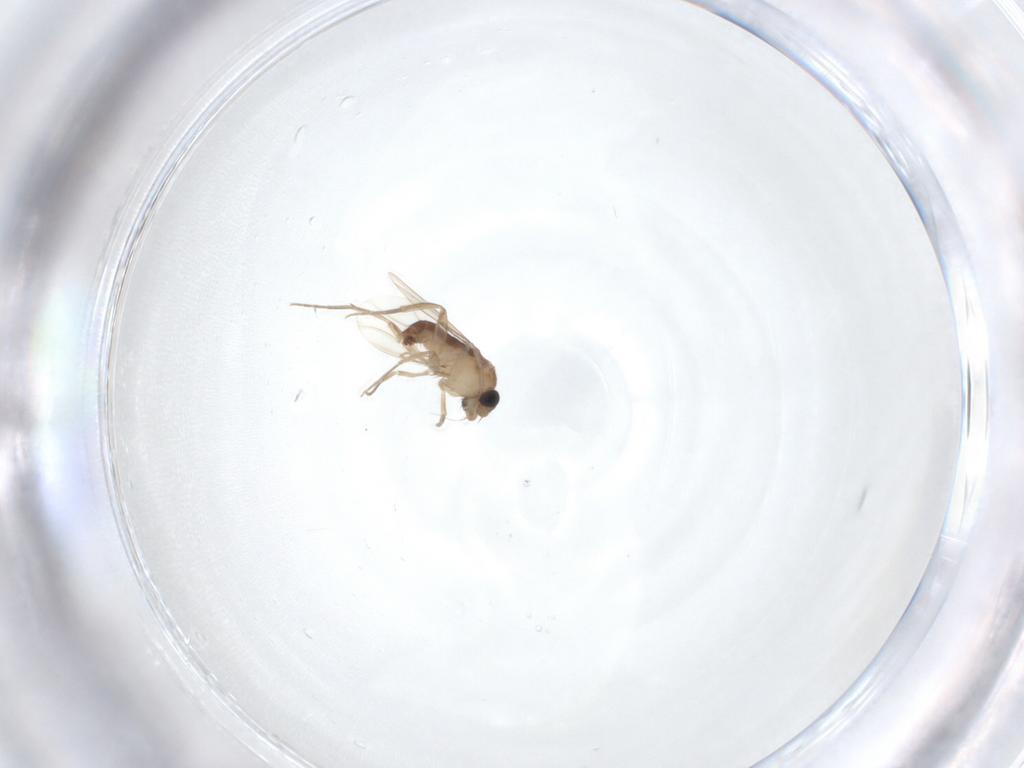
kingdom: Animalia
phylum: Arthropoda
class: Insecta
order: Diptera
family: Phoridae
